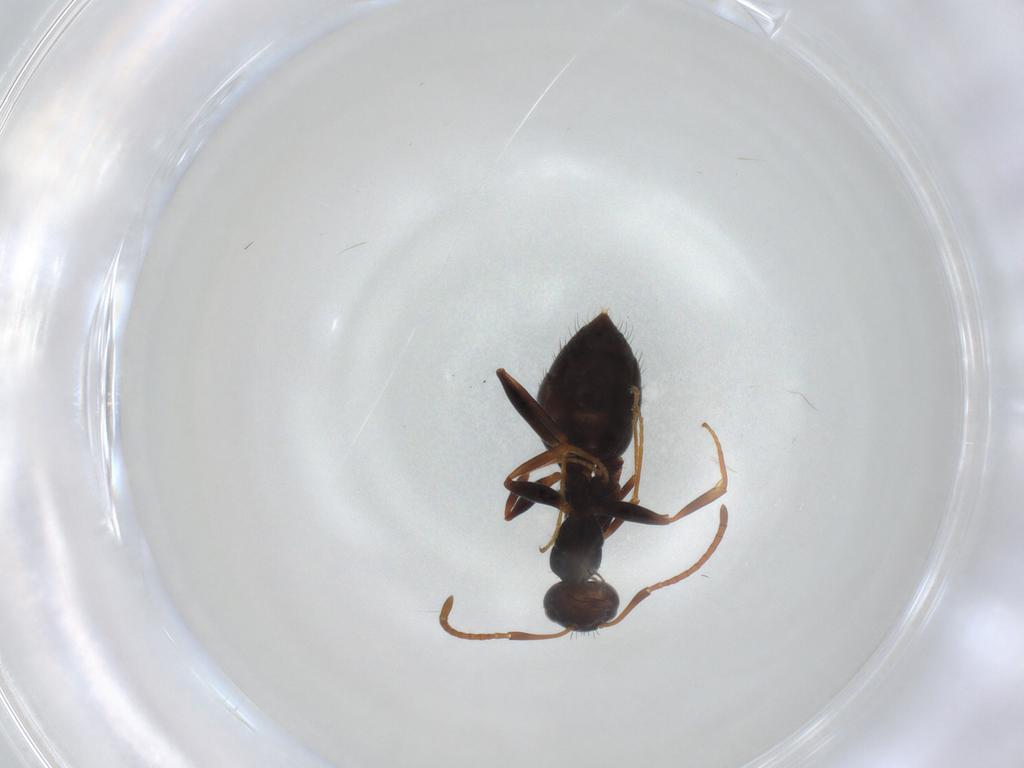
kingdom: Animalia
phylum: Arthropoda
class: Insecta
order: Hymenoptera
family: Formicidae
